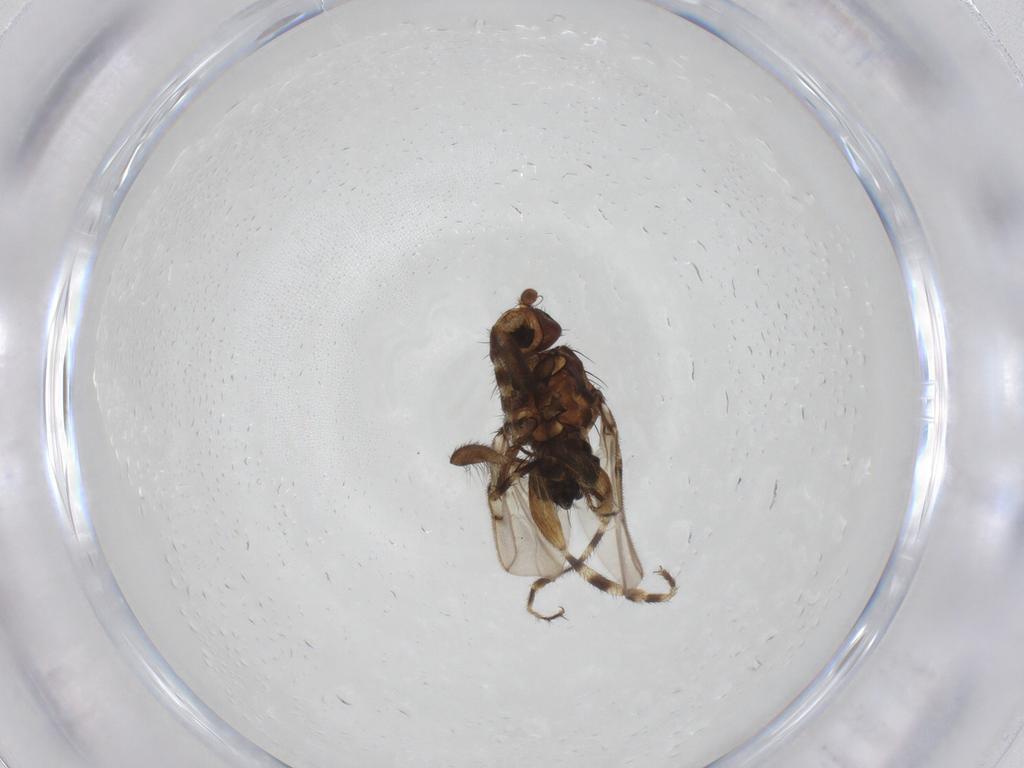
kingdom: Animalia
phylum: Arthropoda
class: Insecta
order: Diptera
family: Sphaeroceridae
